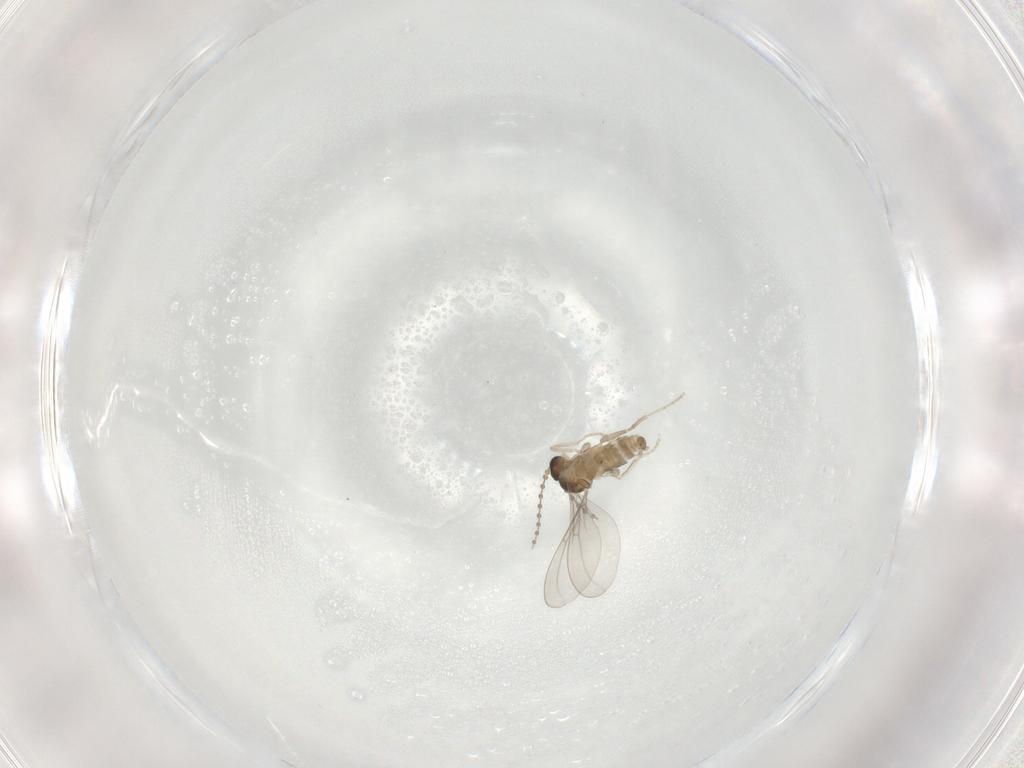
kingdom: Animalia
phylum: Arthropoda
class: Insecta
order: Diptera
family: Cecidomyiidae
